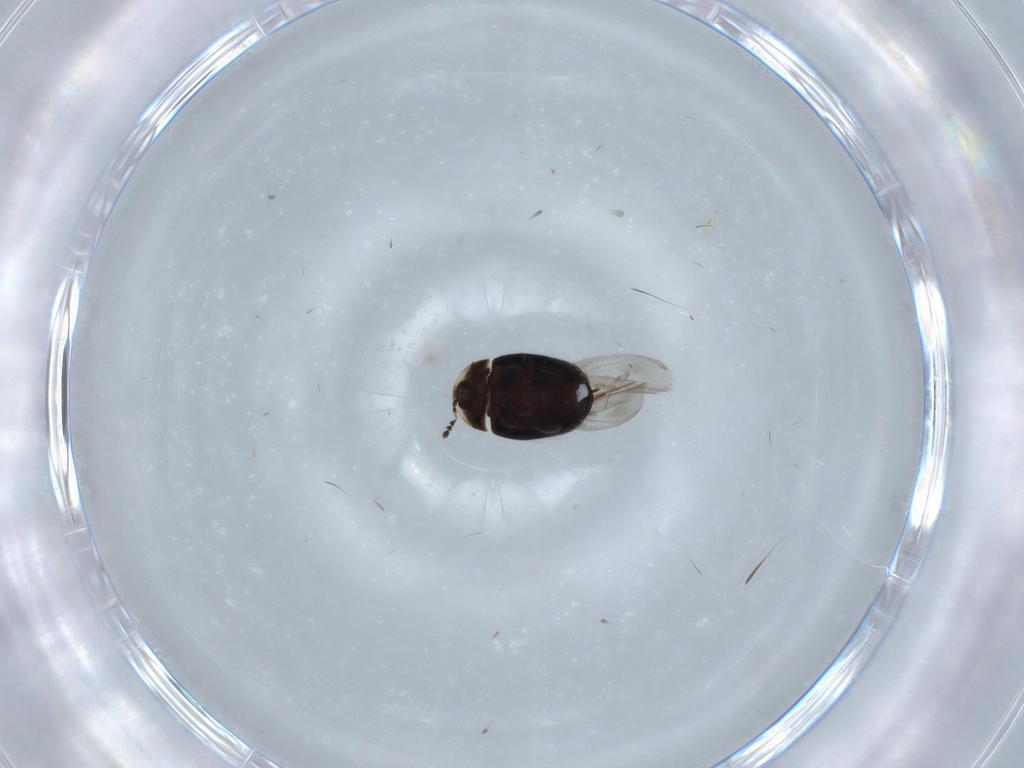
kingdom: Animalia
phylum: Arthropoda
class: Insecta
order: Coleoptera
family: Corylophidae
